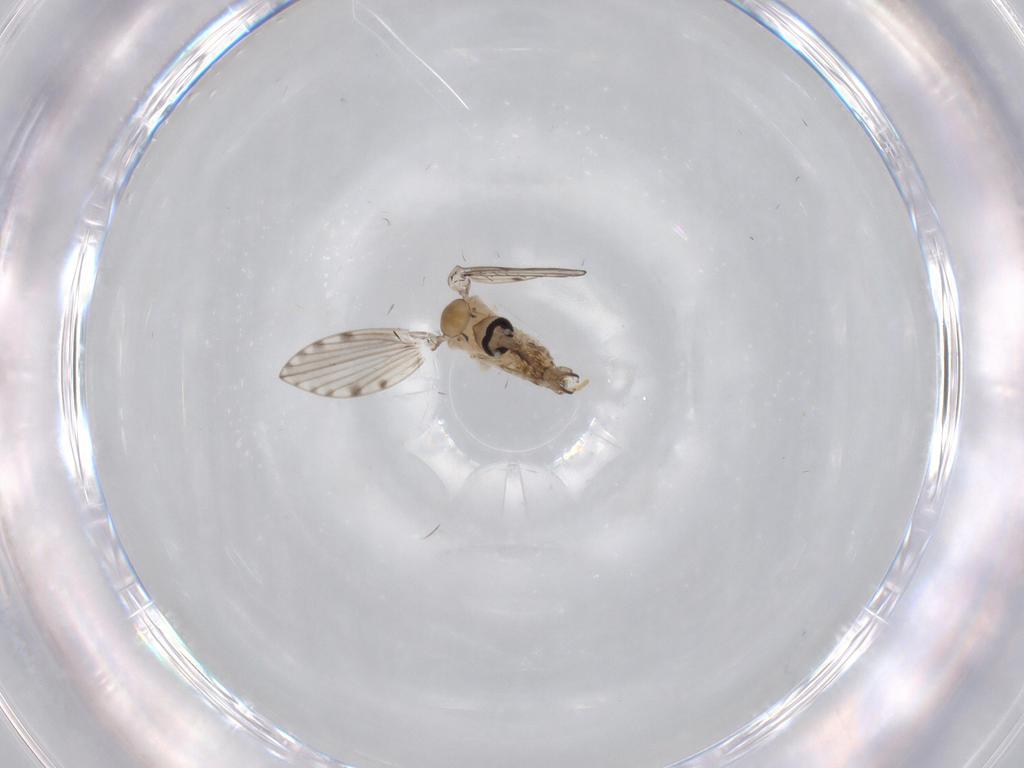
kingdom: Animalia
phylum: Arthropoda
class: Insecta
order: Diptera
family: Psychodidae
